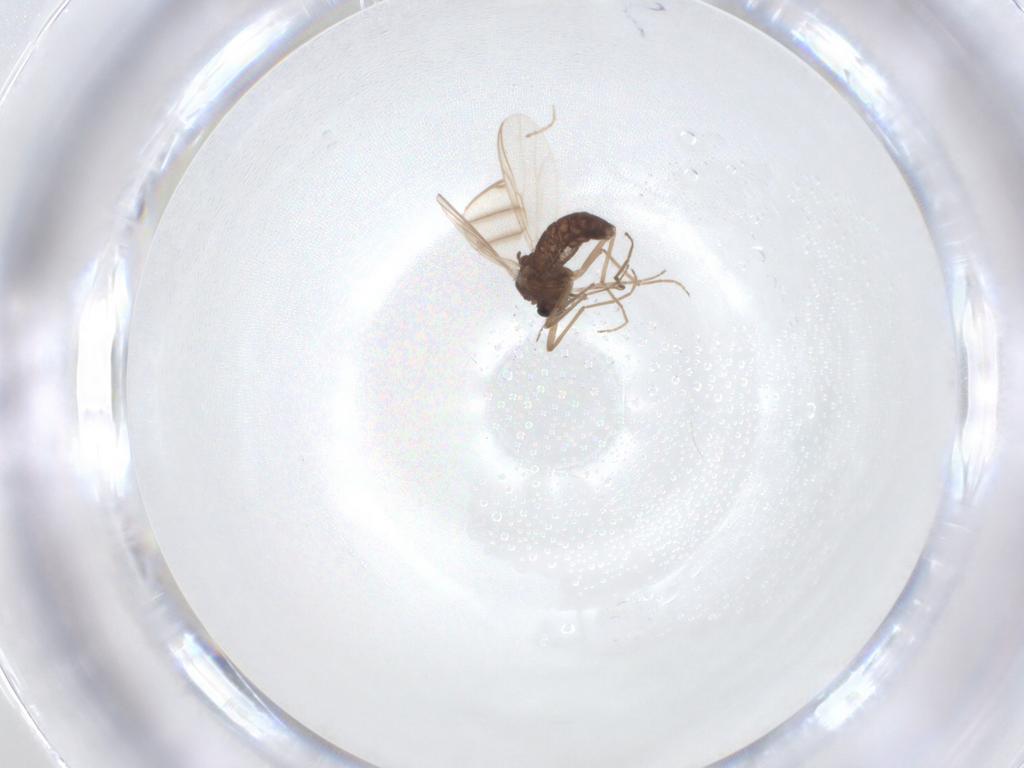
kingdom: Animalia
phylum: Arthropoda
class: Insecta
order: Diptera
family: Chironomidae
